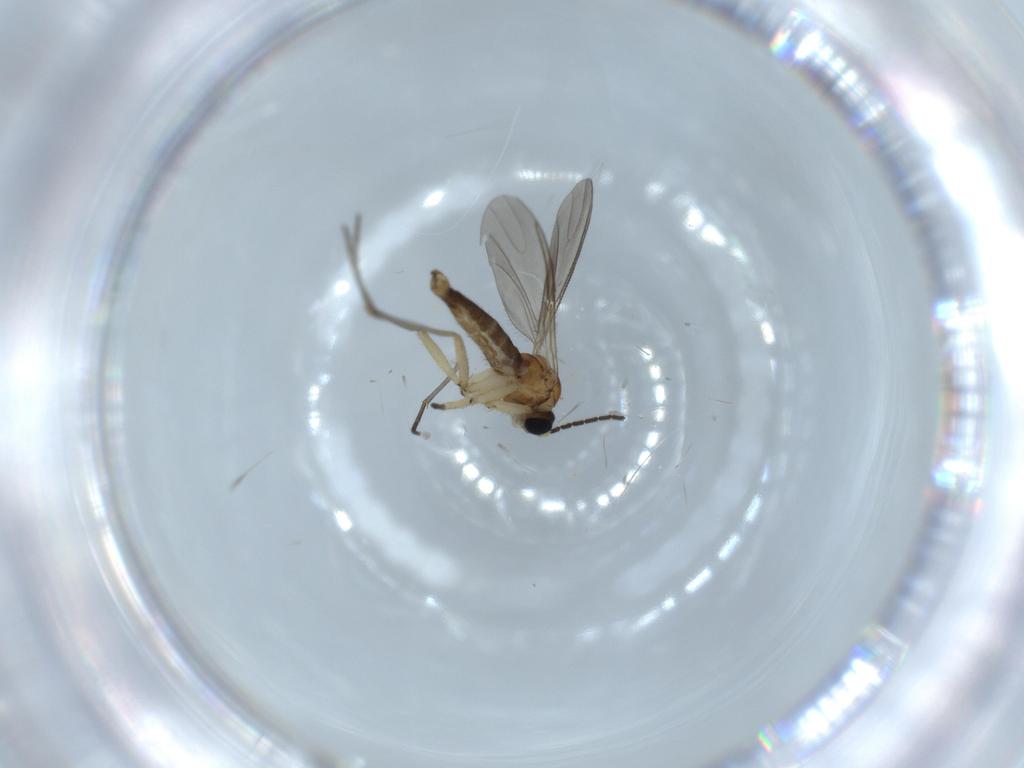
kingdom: Animalia
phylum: Arthropoda
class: Insecta
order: Diptera
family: Sciaridae
